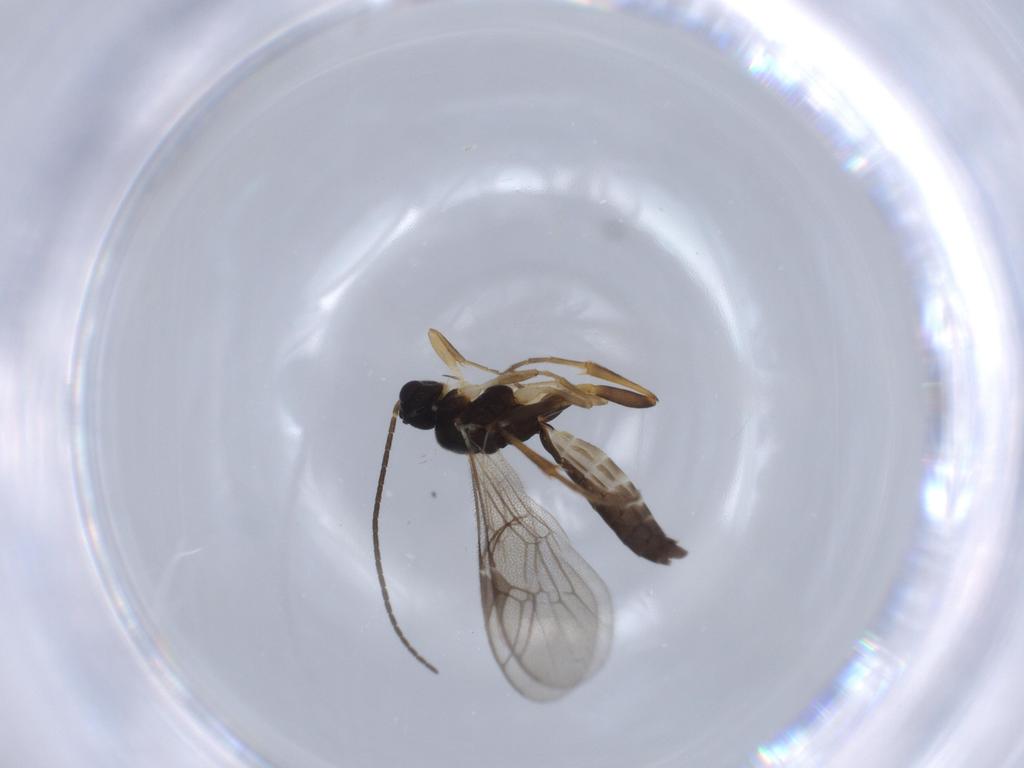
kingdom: Animalia
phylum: Arthropoda
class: Insecta
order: Hymenoptera
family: Ichneumonidae
